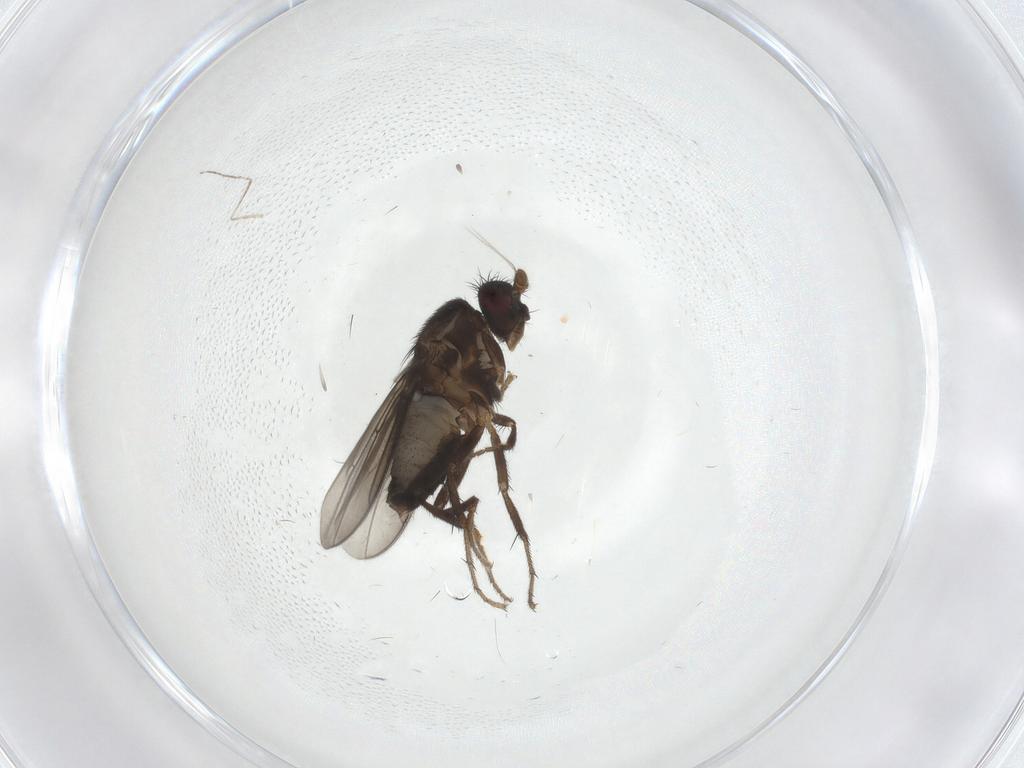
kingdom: Animalia
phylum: Arthropoda
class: Insecta
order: Diptera
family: Cecidomyiidae
